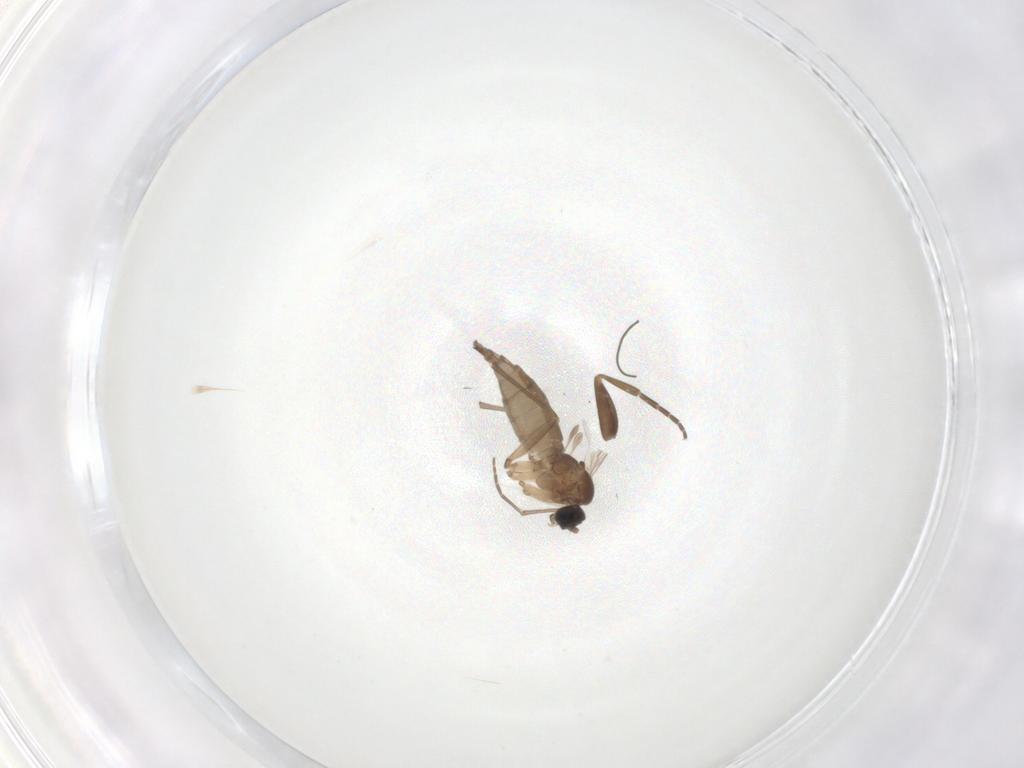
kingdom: Animalia
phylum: Arthropoda
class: Insecta
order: Diptera
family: Sciaridae
